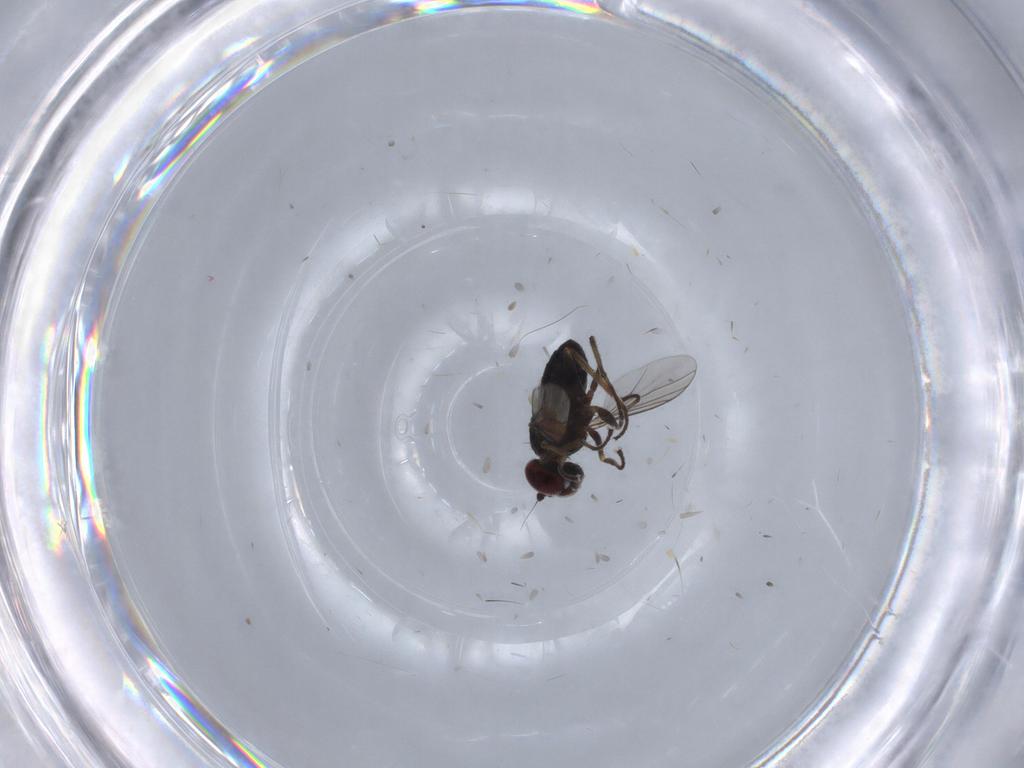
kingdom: Animalia
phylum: Arthropoda
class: Insecta
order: Diptera
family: Dolichopodidae
